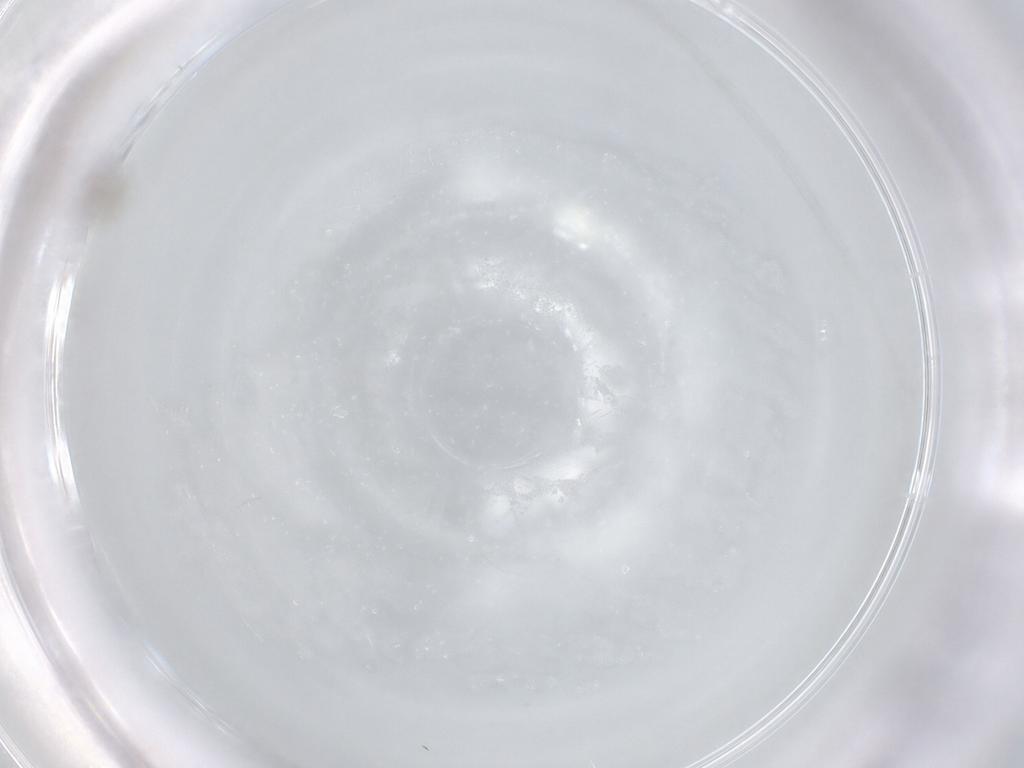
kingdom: Animalia
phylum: Arthropoda
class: Insecta
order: Diptera
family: Cecidomyiidae
